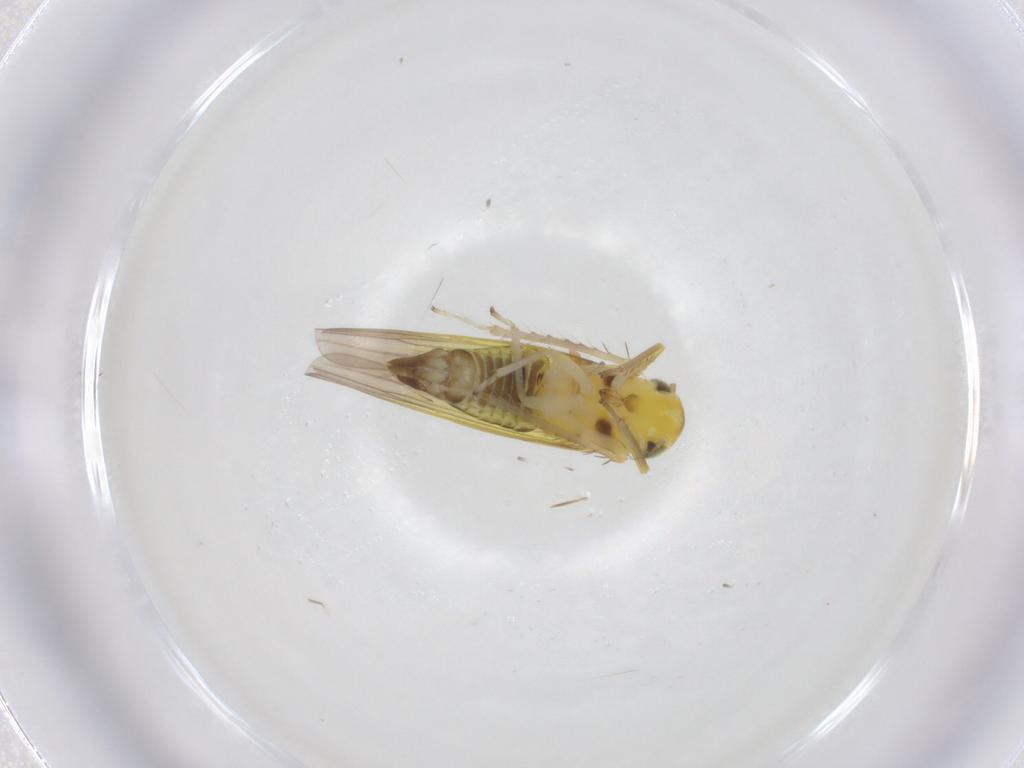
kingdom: Animalia
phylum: Arthropoda
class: Insecta
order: Hemiptera
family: Cicadellidae
